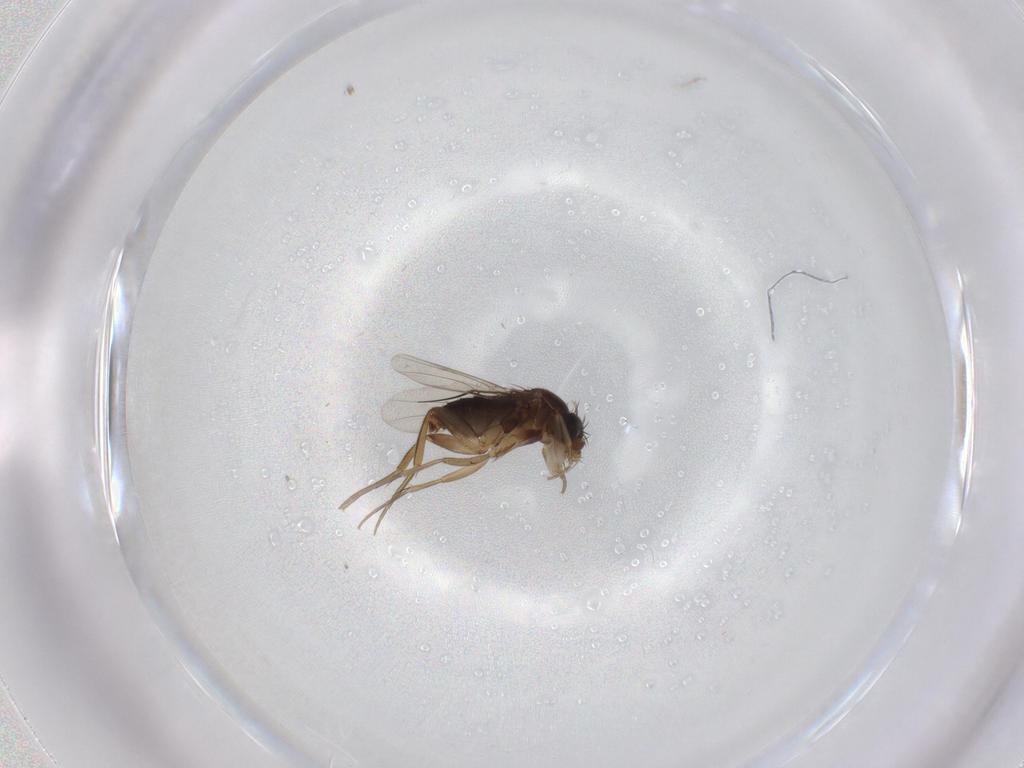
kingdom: Animalia
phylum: Arthropoda
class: Insecta
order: Diptera
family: Phoridae
